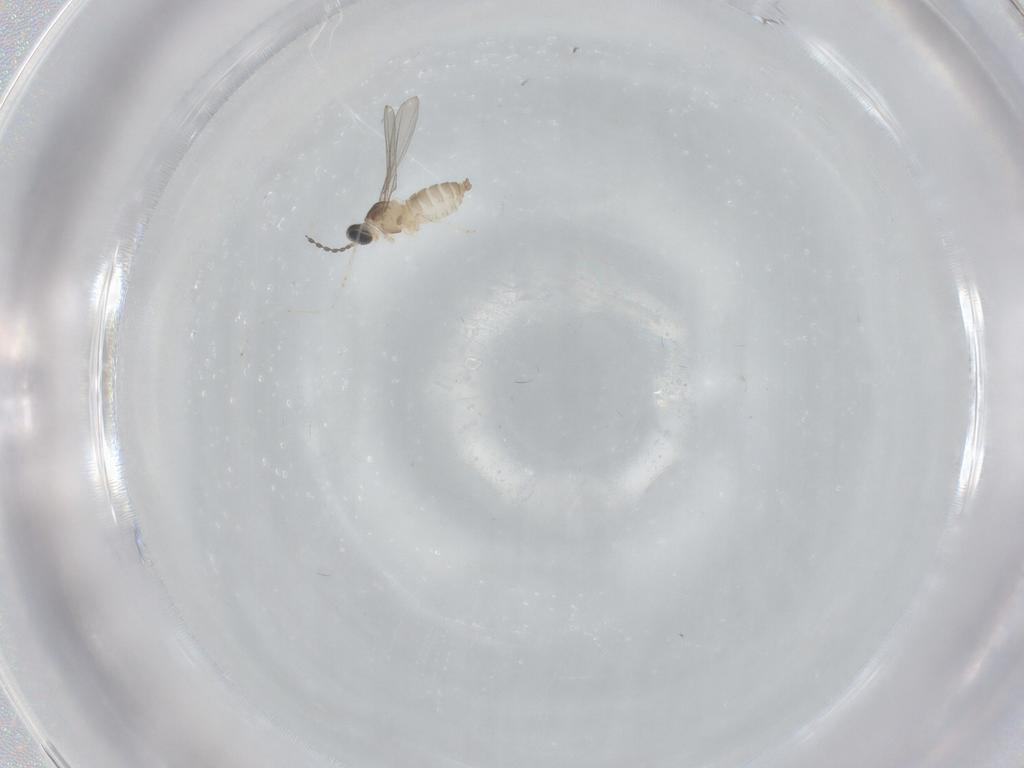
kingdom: Animalia
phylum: Arthropoda
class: Insecta
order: Diptera
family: Cecidomyiidae
